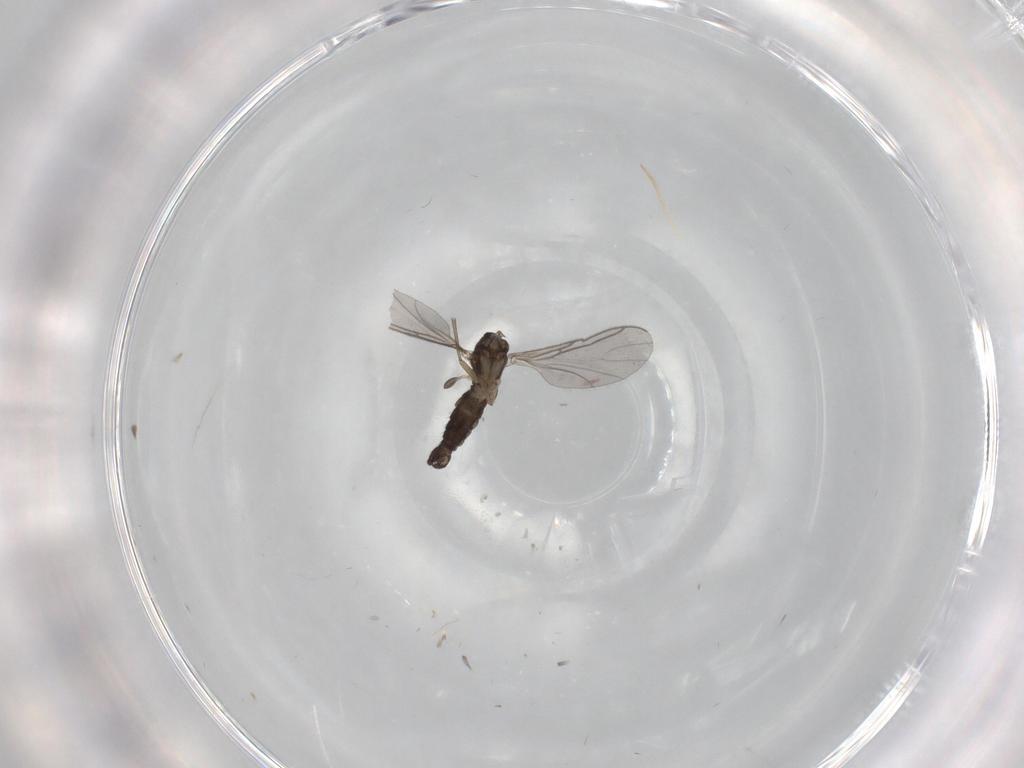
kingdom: Animalia
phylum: Arthropoda
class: Insecta
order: Diptera
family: Sciaridae
